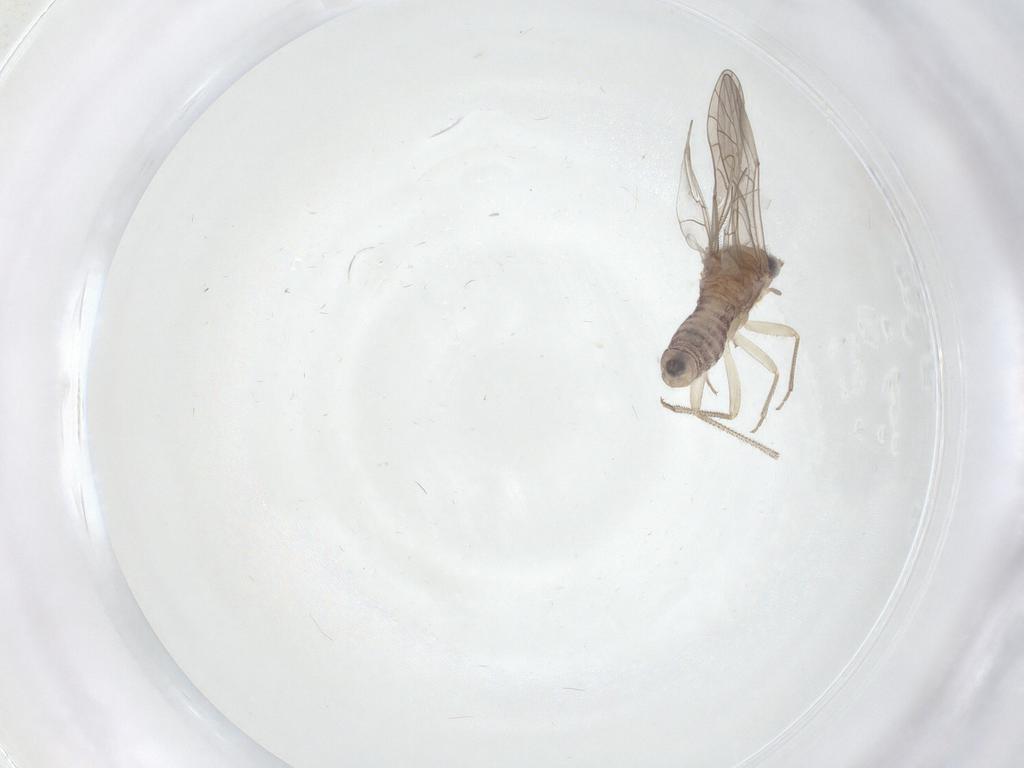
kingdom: Animalia
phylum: Arthropoda
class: Insecta
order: Psocodea
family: Caeciliusidae
